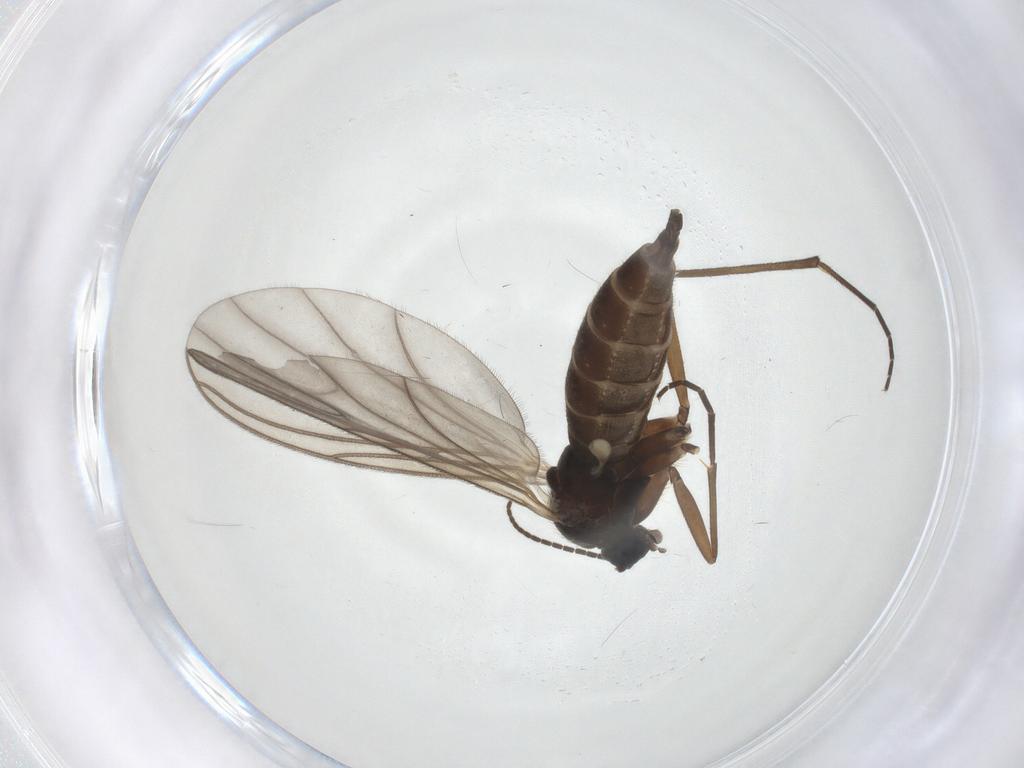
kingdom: Animalia
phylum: Arthropoda
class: Insecta
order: Diptera
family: Sciaridae
